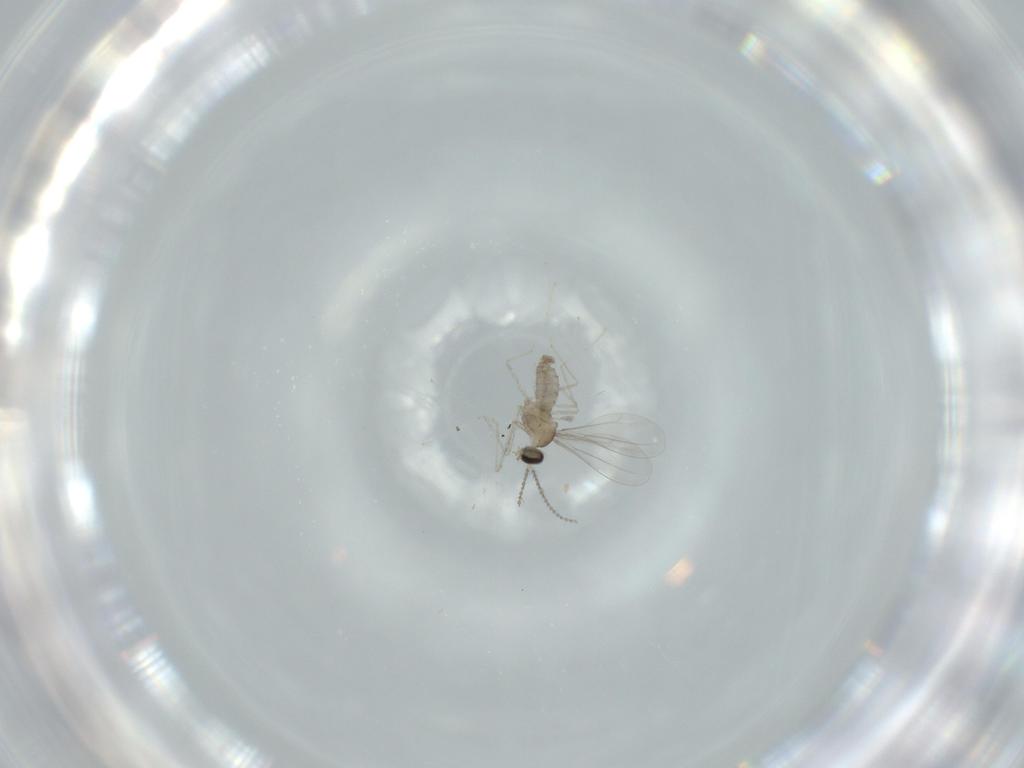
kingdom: Animalia
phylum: Arthropoda
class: Insecta
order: Diptera
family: Cecidomyiidae
